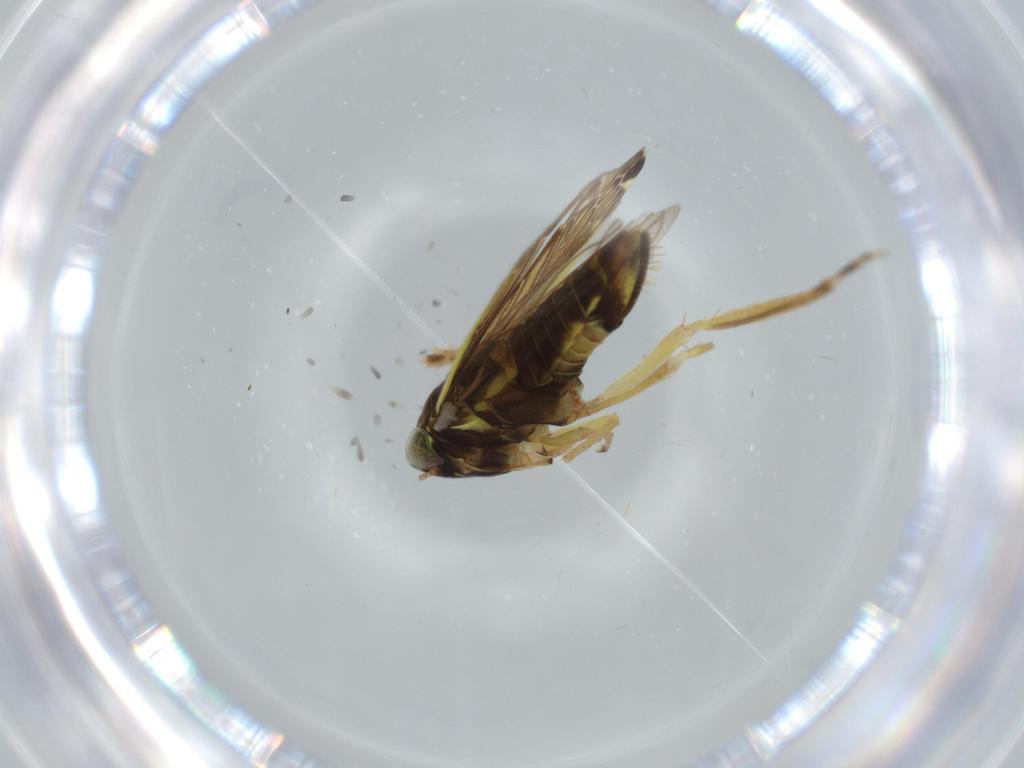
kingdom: Animalia
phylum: Arthropoda
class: Insecta
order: Hemiptera
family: Cicadellidae
